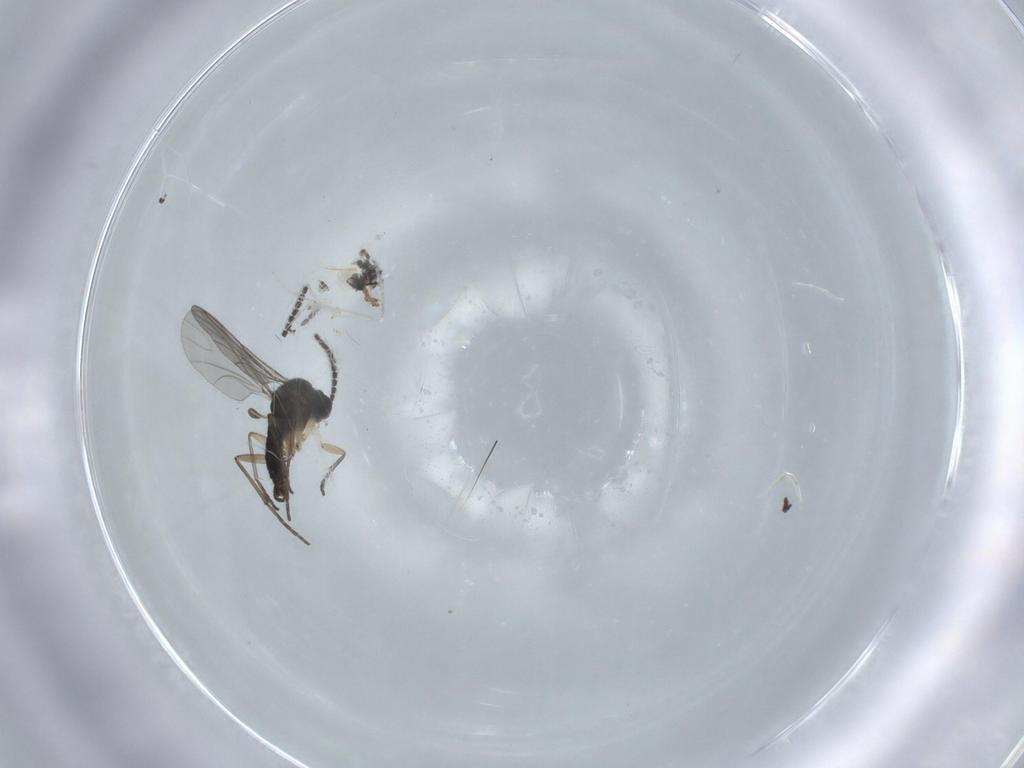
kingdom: Animalia
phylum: Arthropoda
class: Insecta
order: Diptera
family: Sciaridae
